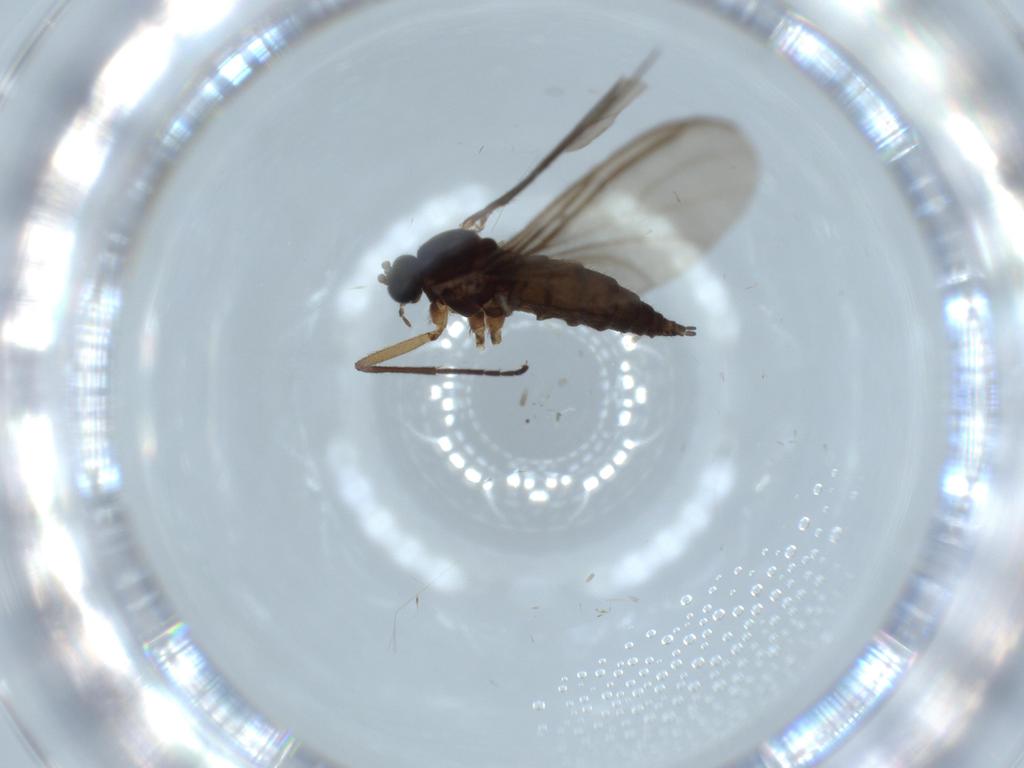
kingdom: Animalia
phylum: Arthropoda
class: Insecta
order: Diptera
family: Sciaridae
